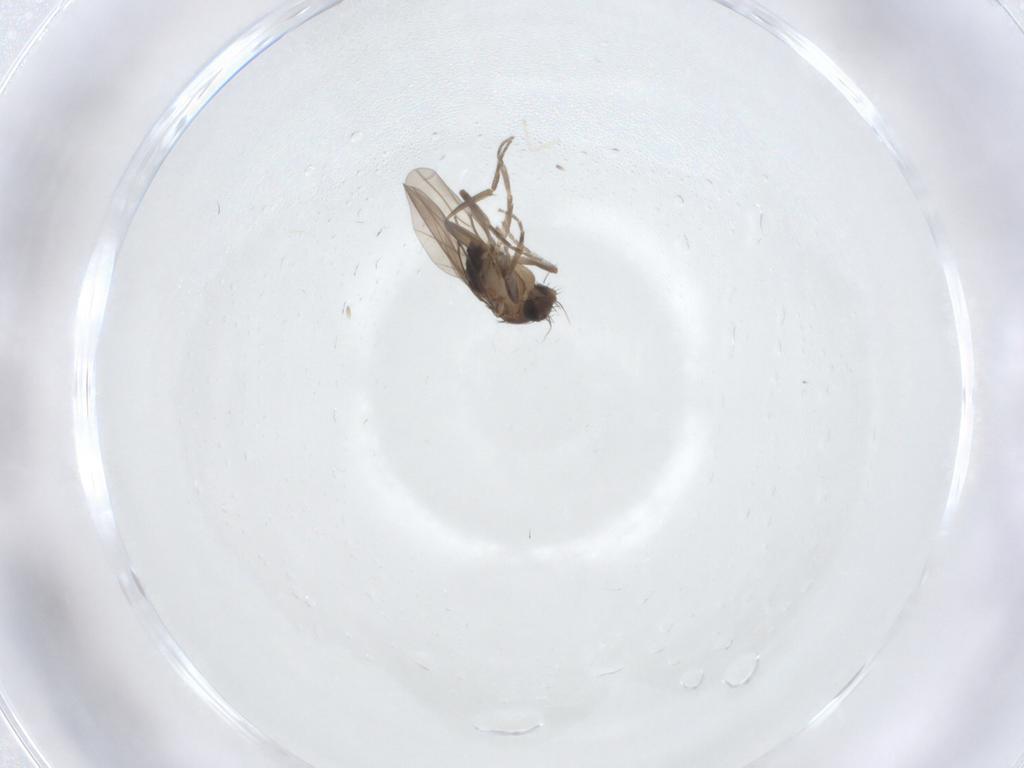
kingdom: Animalia
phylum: Arthropoda
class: Insecta
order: Diptera
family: Cecidomyiidae
